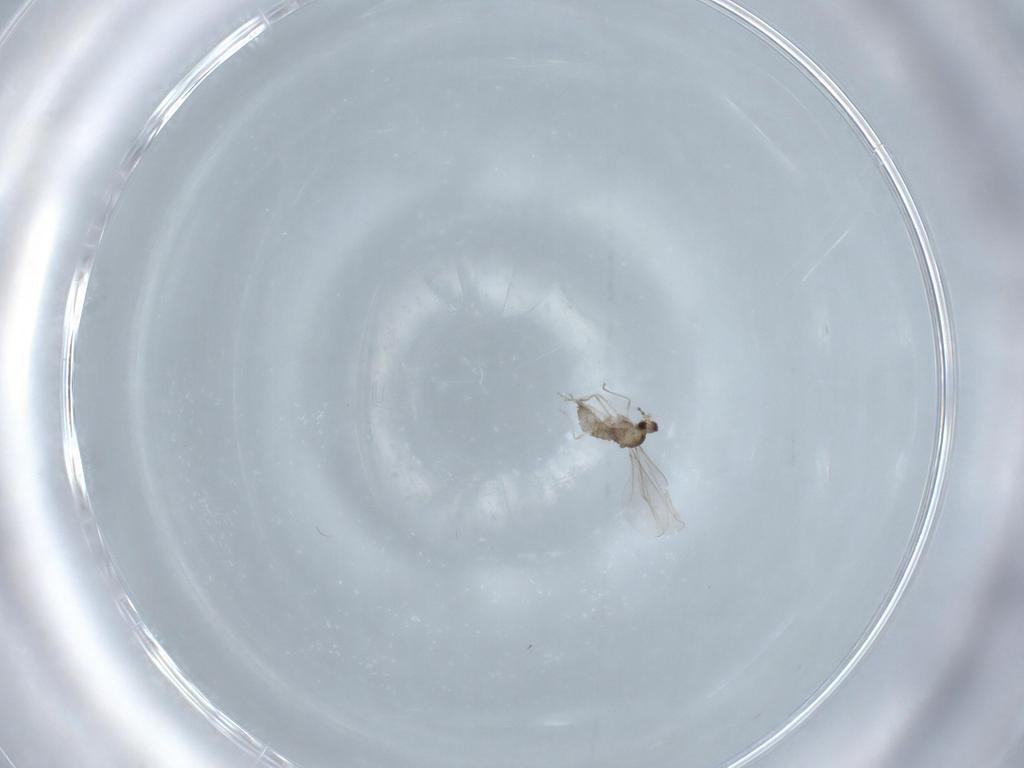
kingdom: Animalia
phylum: Arthropoda
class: Insecta
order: Diptera
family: Cecidomyiidae
